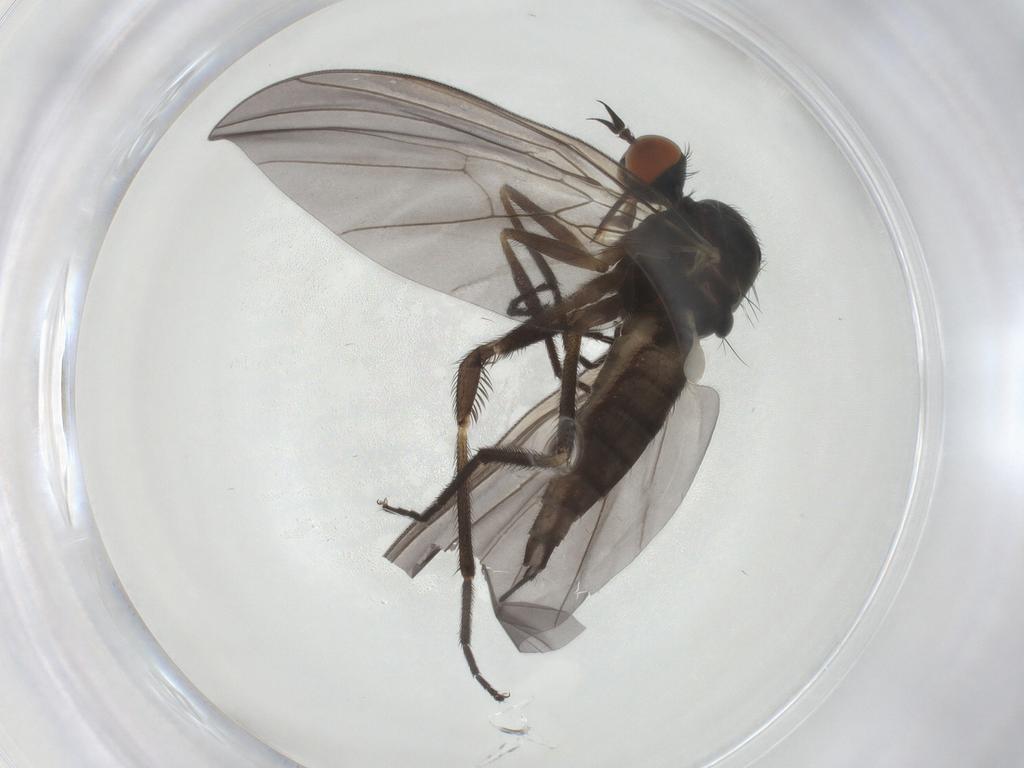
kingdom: Animalia
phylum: Arthropoda
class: Insecta
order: Diptera
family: Empididae
